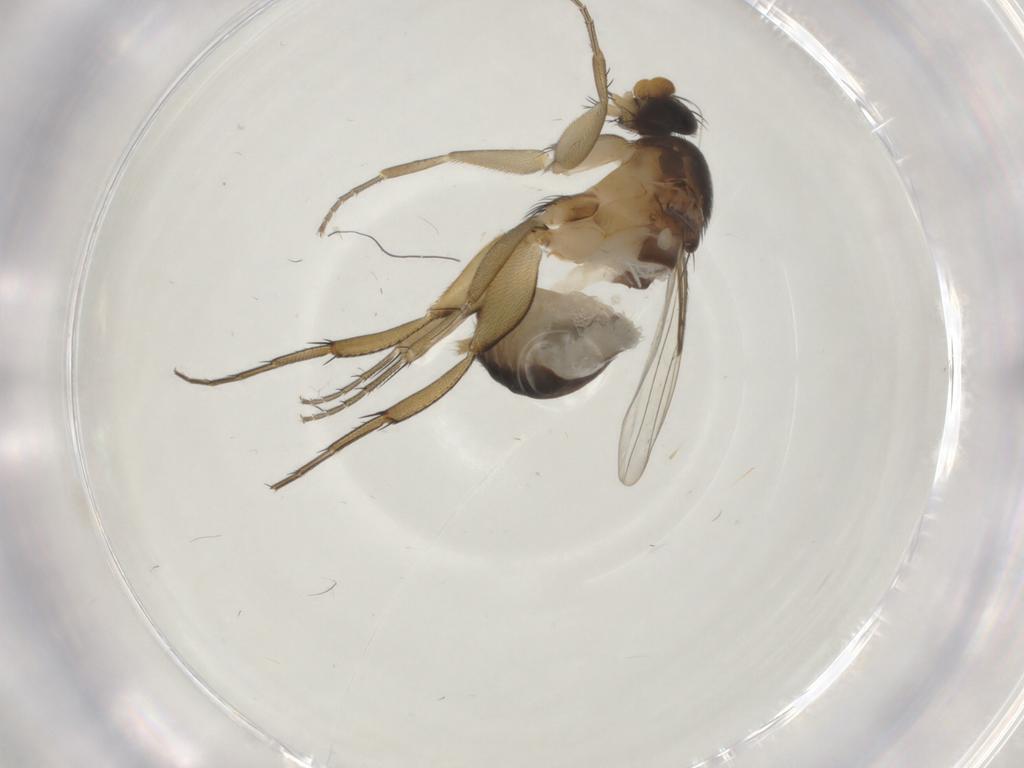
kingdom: Animalia
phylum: Arthropoda
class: Insecta
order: Diptera
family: Phoridae
